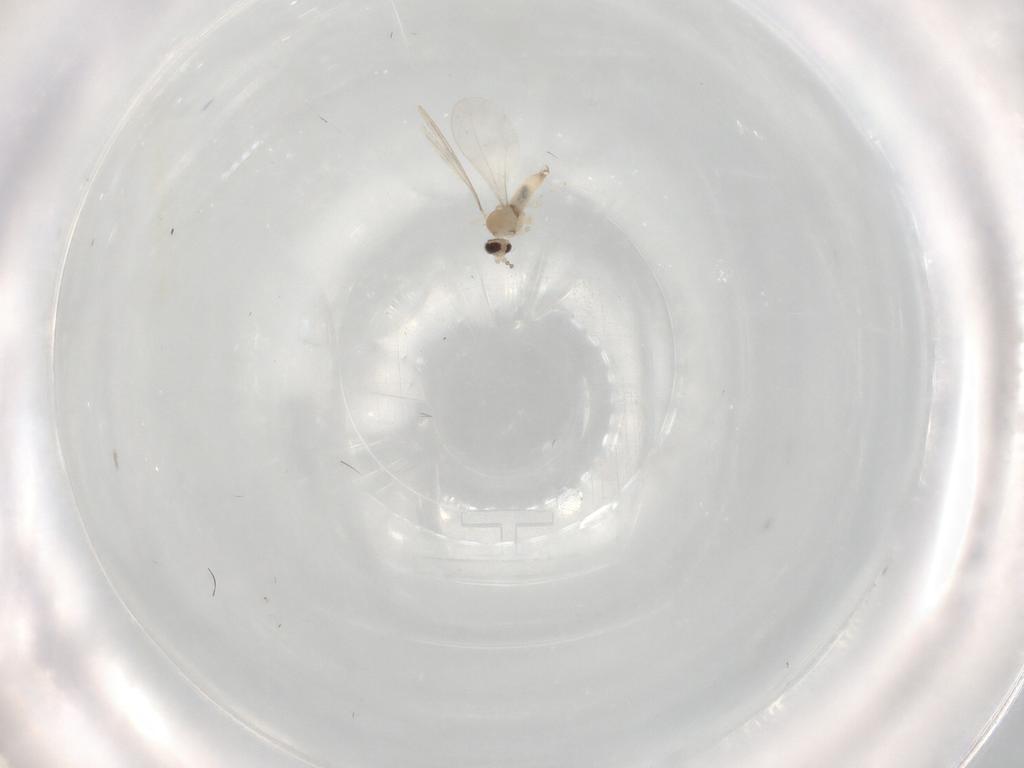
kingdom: Animalia
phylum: Arthropoda
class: Insecta
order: Diptera
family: Cecidomyiidae
